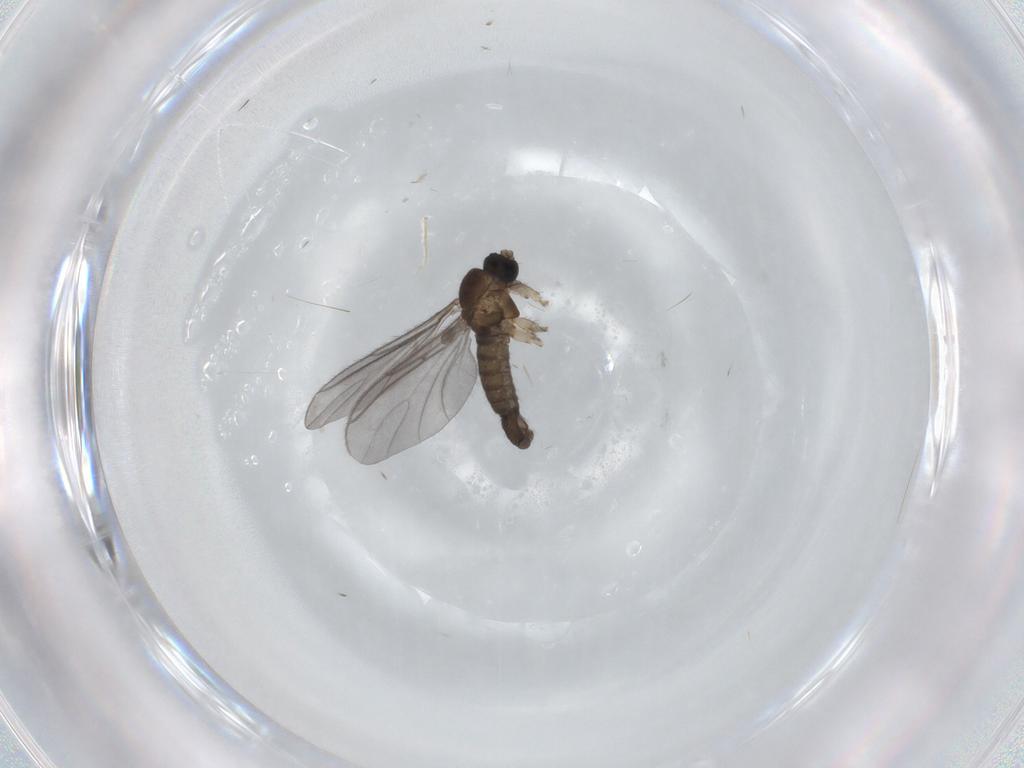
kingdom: Animalia
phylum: Arthropoda
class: Insecta
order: Diptera
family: Sciaridae
